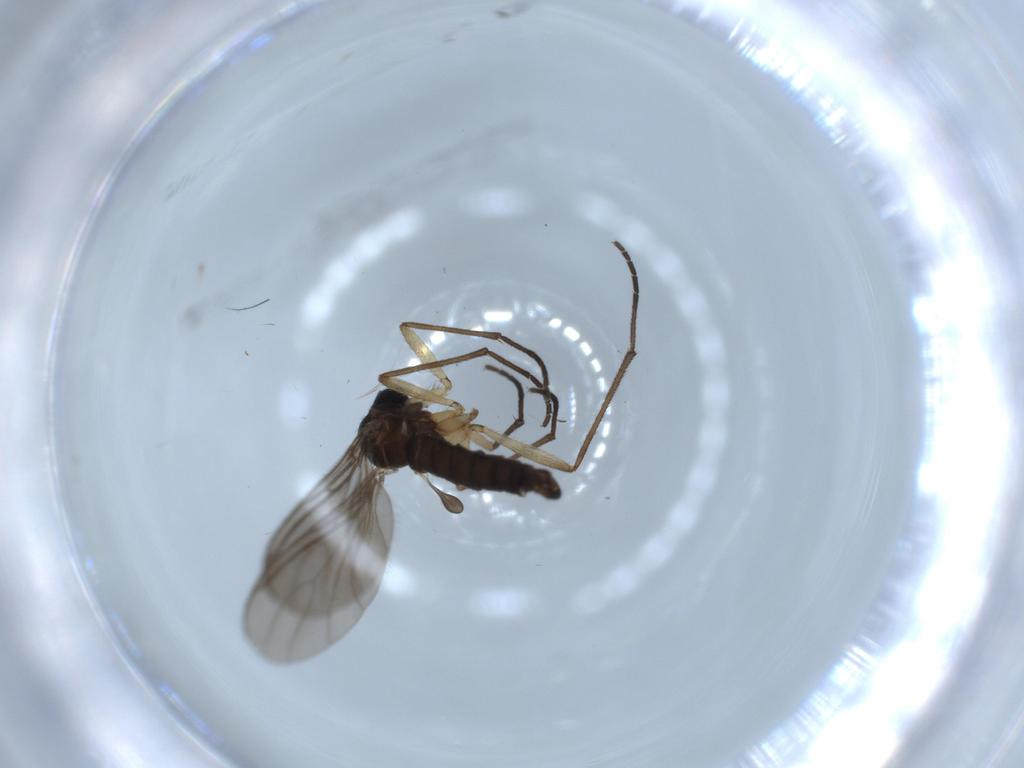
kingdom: Animalia
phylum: Arthropoda
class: Insecta
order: Diptera
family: Sciaridae
